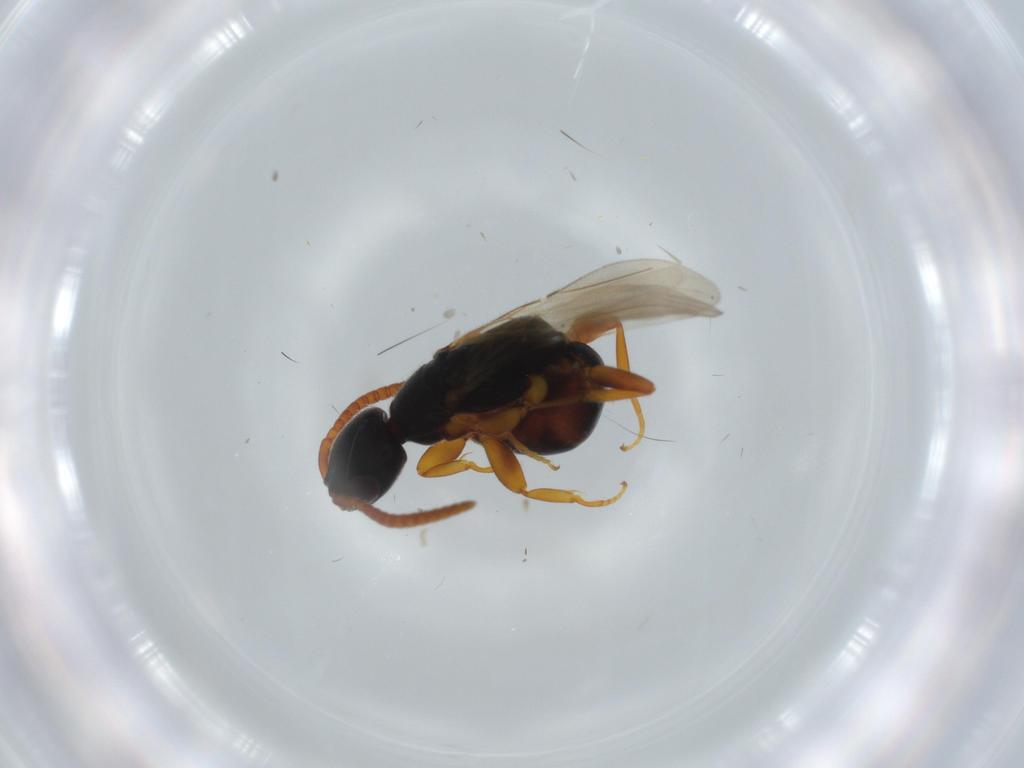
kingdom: Animalia
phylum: Arthropoda
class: Insecta
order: Hymenoptera
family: Bethylidae
